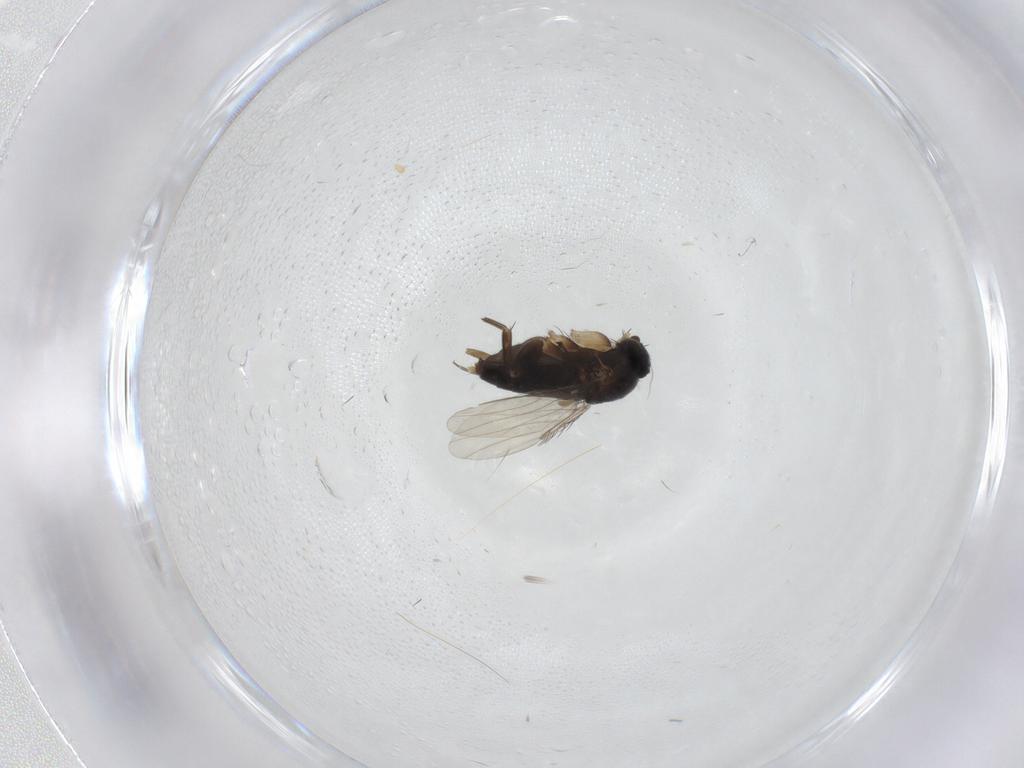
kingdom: Animalia
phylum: Arthropoda
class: Insecta
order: Diptera
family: Phoridae
